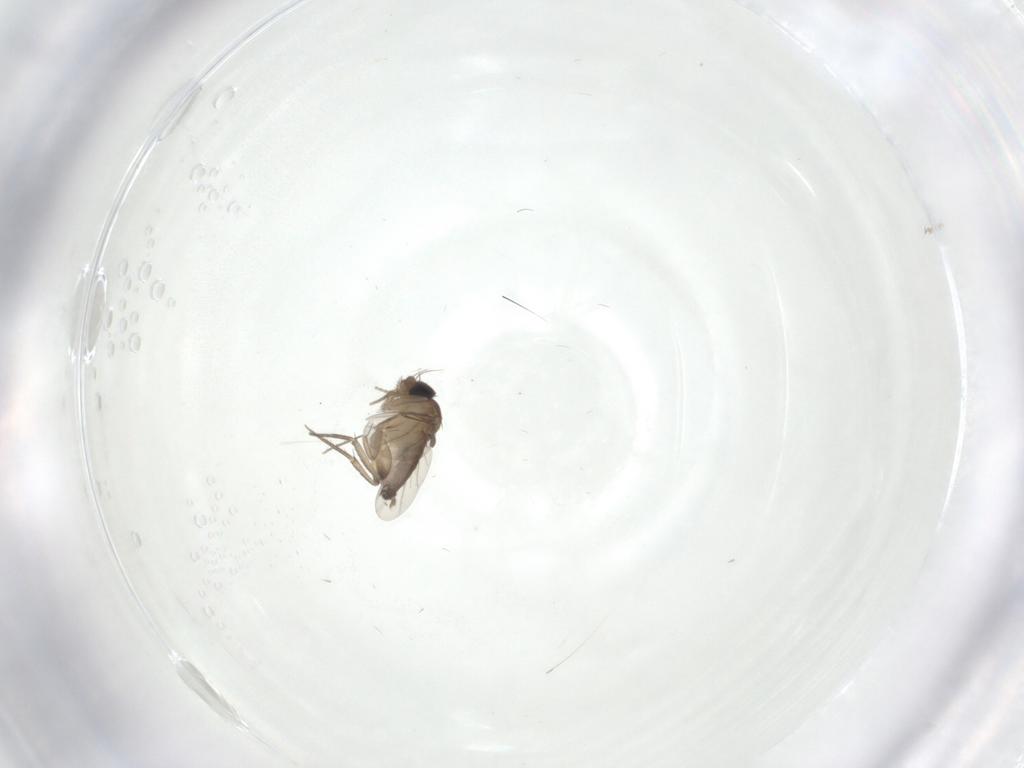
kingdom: Animalia
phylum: Arthropoda
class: Insecta
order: Diptera
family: Phoridae
